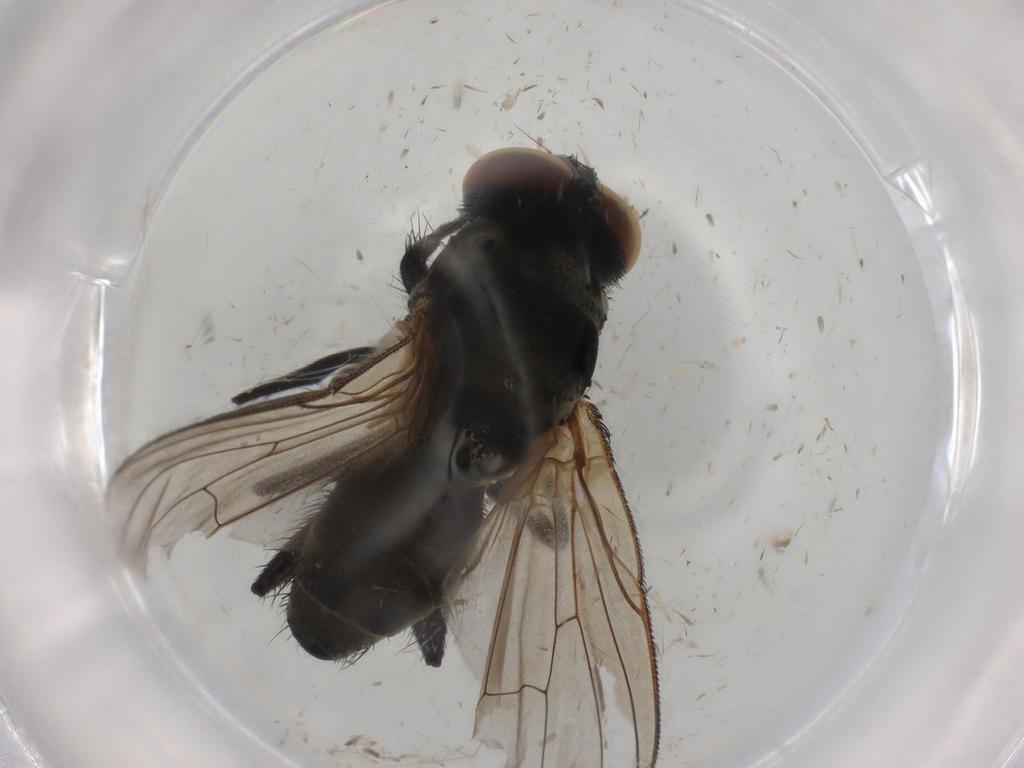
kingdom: Animalia
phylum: Arthropoda
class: Insecta
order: Diptera
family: Muscidae
